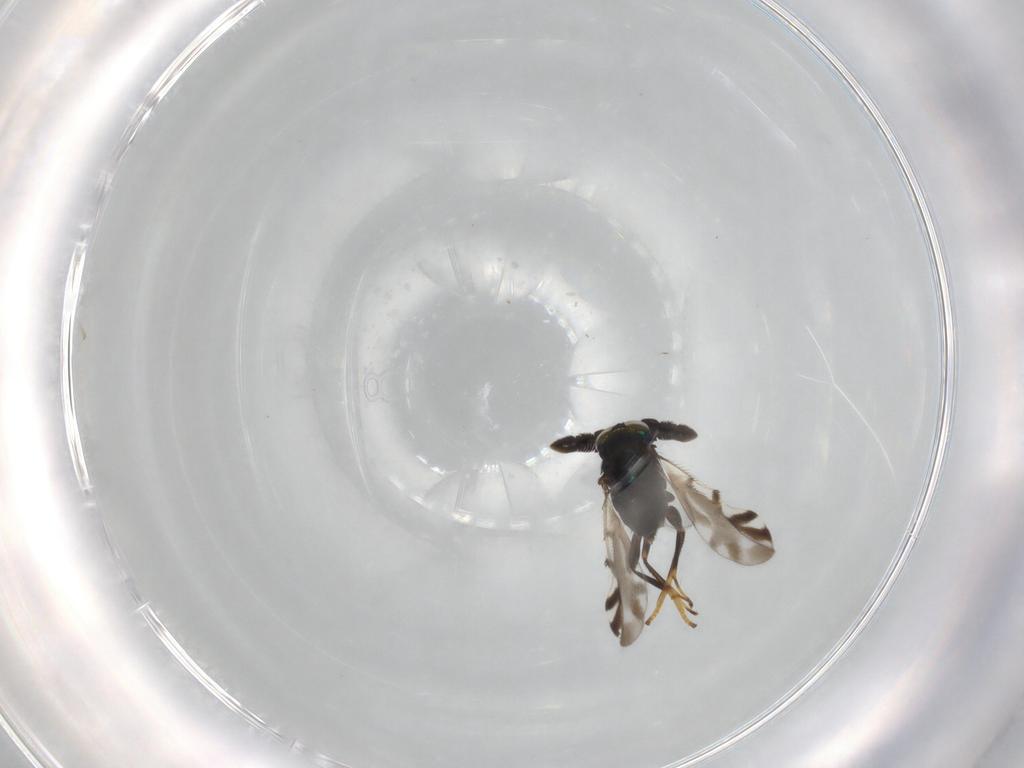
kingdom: Animalia
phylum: Arthropoda
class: Insecta
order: Hymenoptera
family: Encyrtidae
